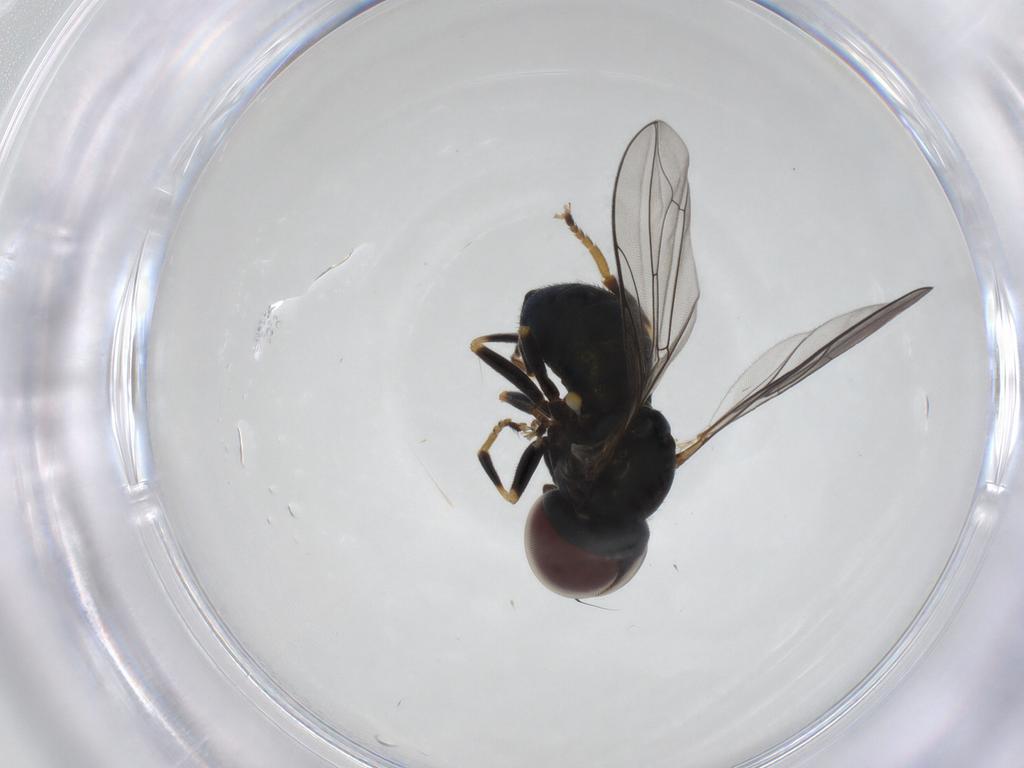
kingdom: Animalia
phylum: Arthropoda
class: Insecta
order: Diptera
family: Pipunculidae
